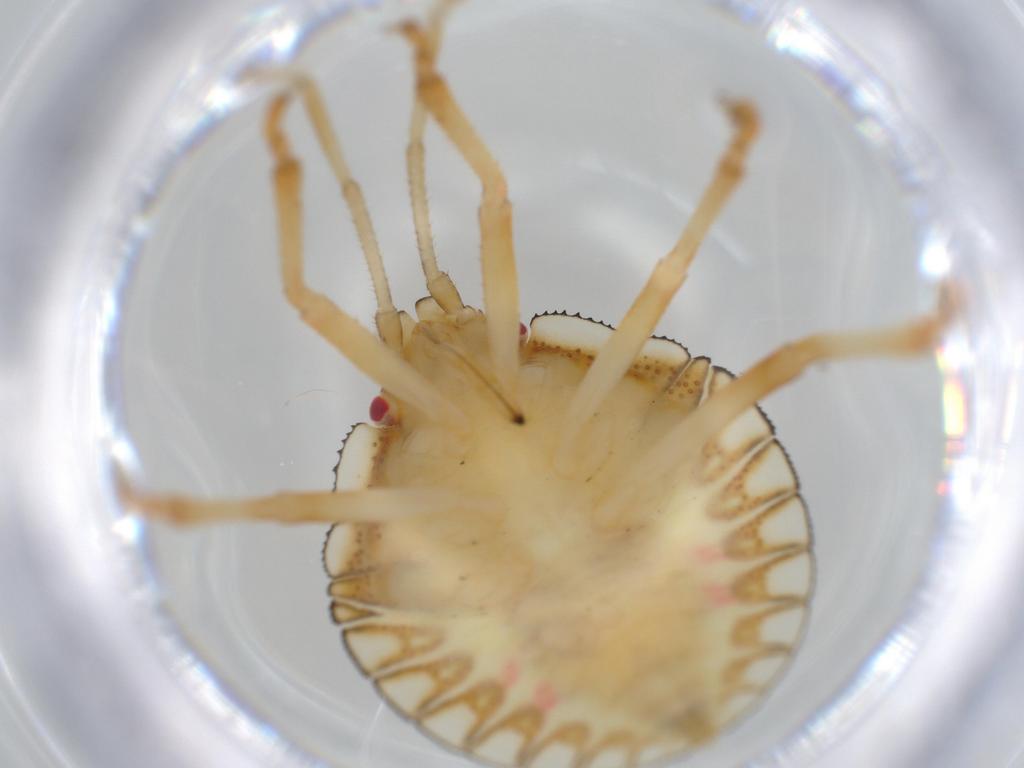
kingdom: Animalia
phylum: Arthropoda
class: Insecta
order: Hemiptera
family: Pentatomidae
